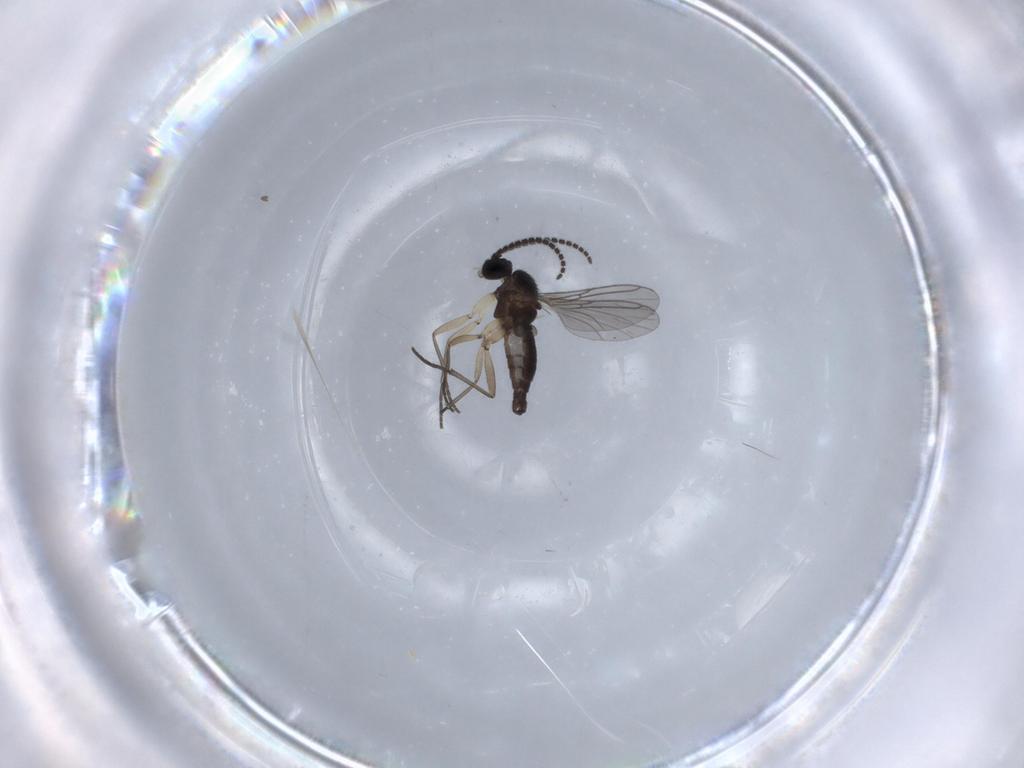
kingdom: Animalia
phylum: Arthropoda
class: Insecta
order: Diptera
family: Sciaridae
